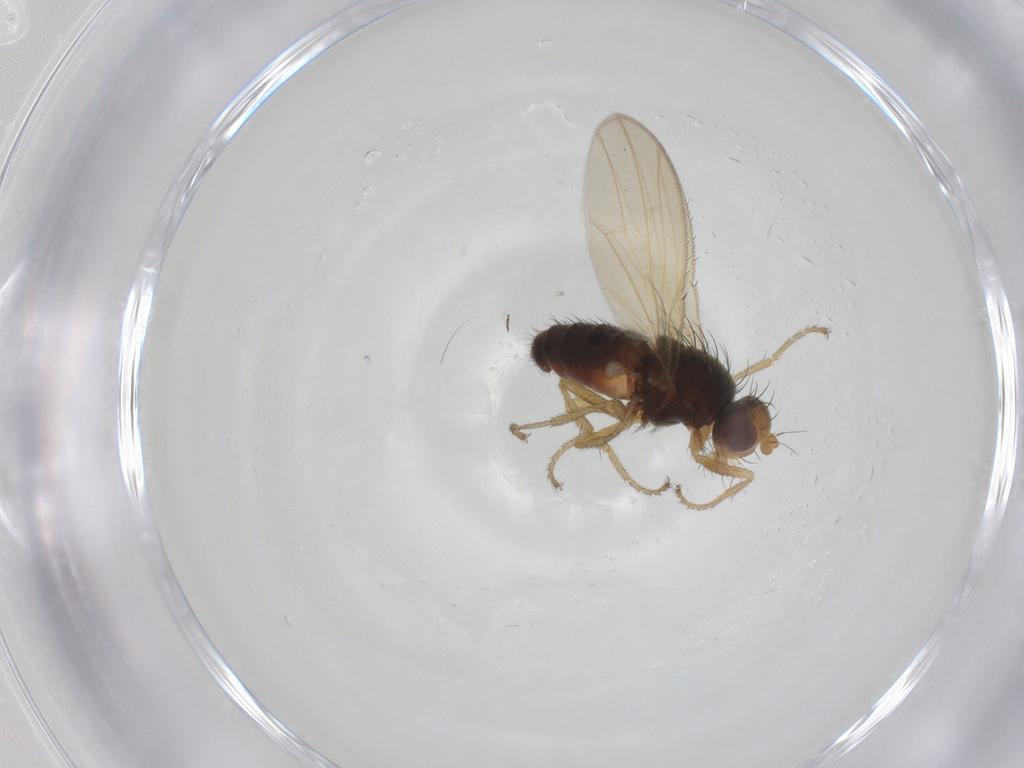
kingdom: Animalia
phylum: Arthropoda
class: Insecta
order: Diptera
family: Heleomyzidae
